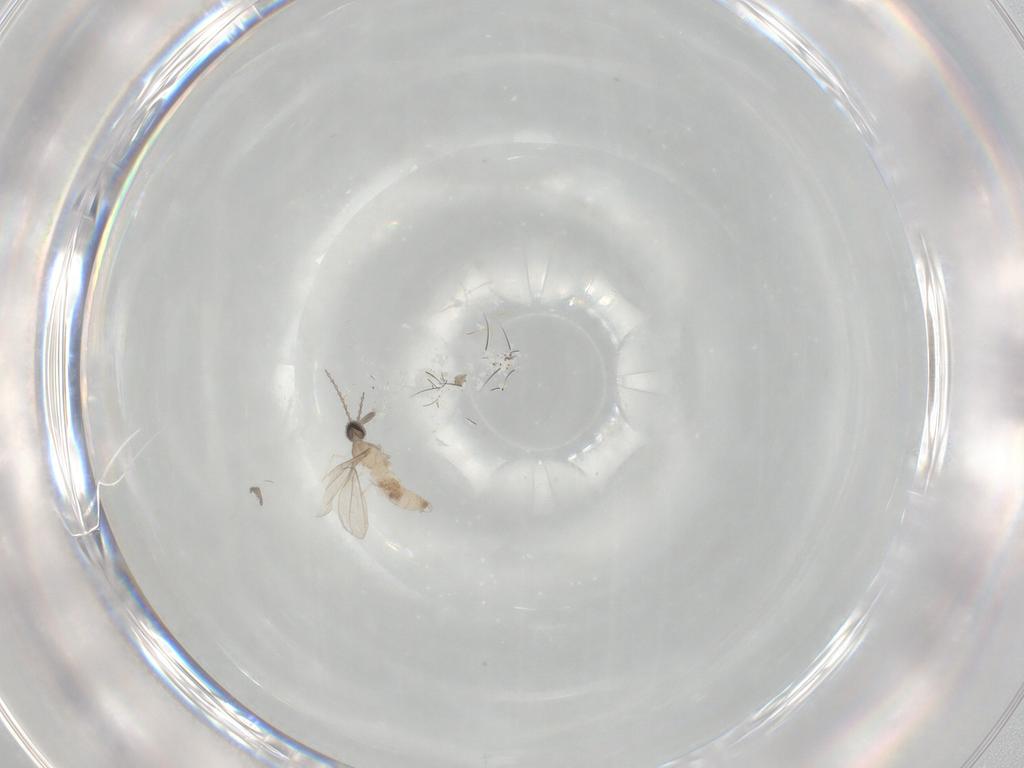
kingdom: Animalia
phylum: Arthropoda
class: Insecta
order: Diptera
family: Cecidomyiidae
